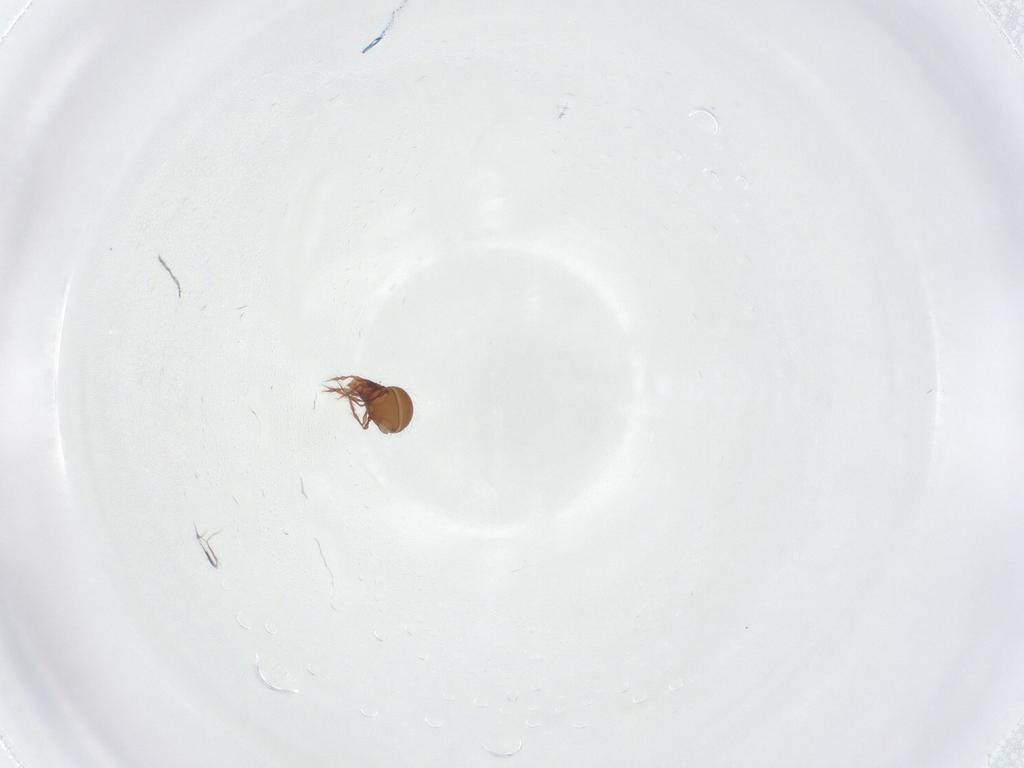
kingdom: Animalia
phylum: Arthropoda
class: Arachnida
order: Sarcoptiformes
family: Oppiidae
